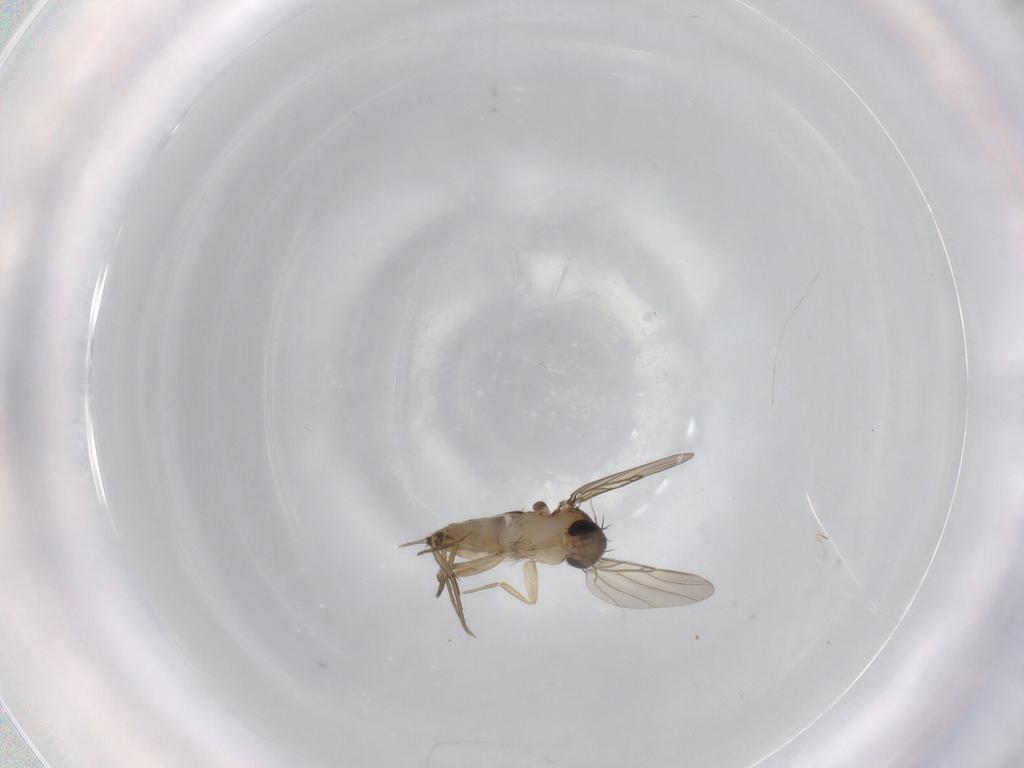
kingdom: Animalia
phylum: Arthropoda
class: Insecta
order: Diptera
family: Phoridae
